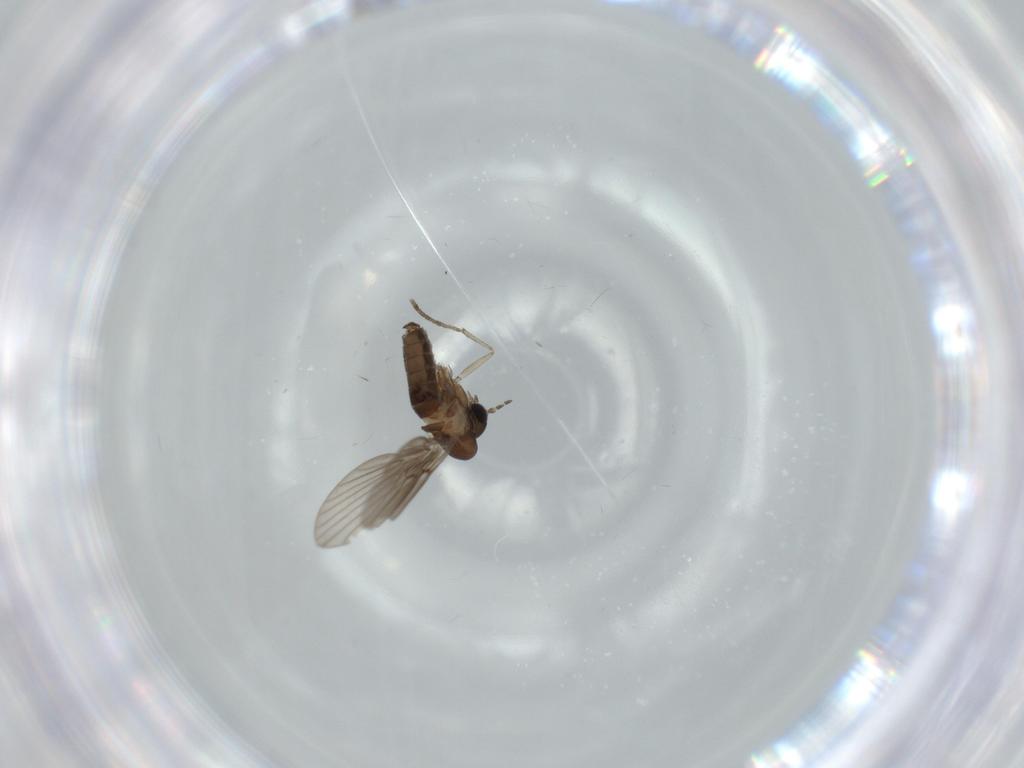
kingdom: Animalia
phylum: Arthropoda
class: Insecta
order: Diptera
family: Psychodidae
